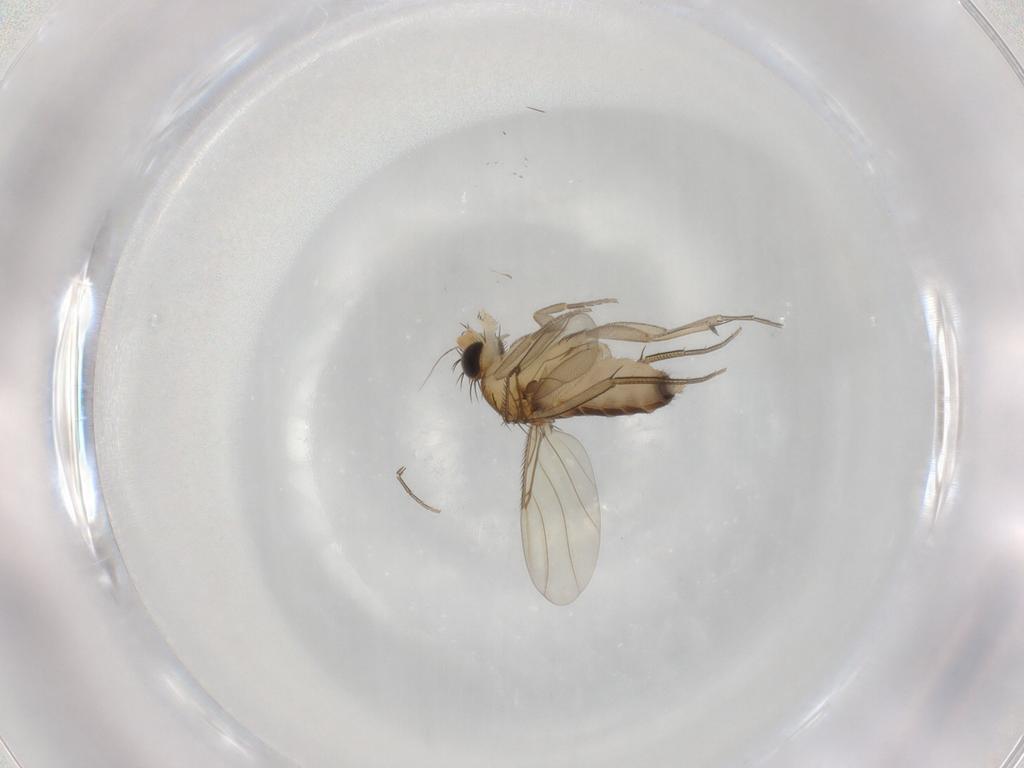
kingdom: Animalia
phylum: Arthropoda
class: Insecta
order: Diptera
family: Phoridae
